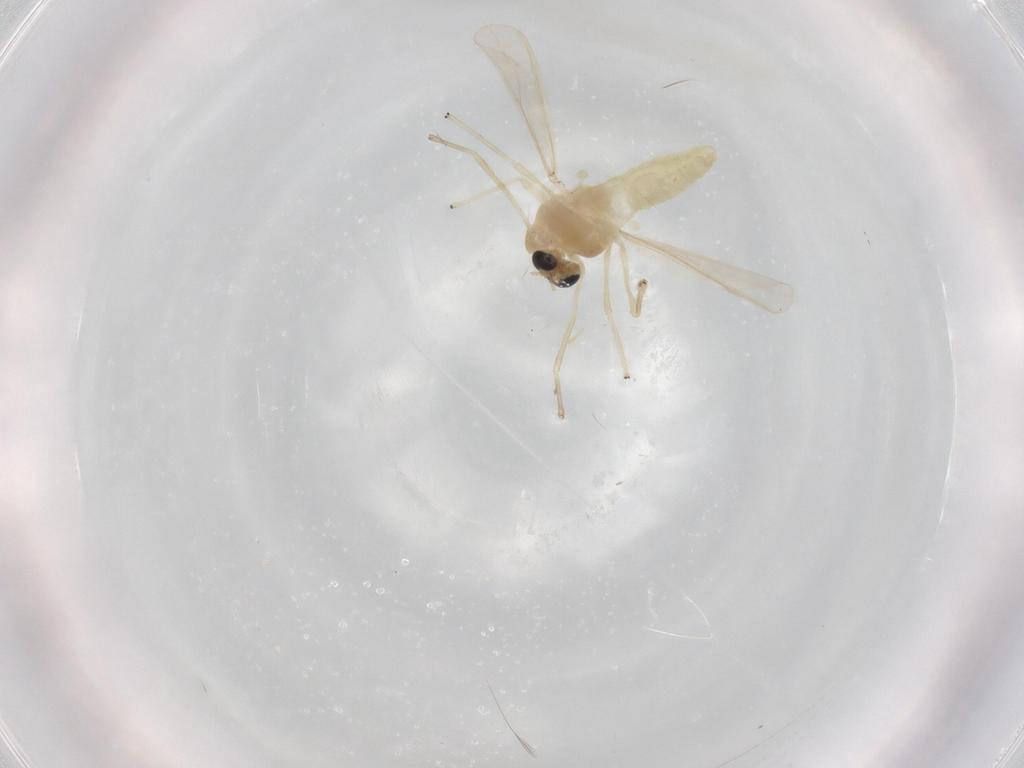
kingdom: Animalia
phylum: Arthropoda
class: Insecta
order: Diptera
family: Chironomidae
